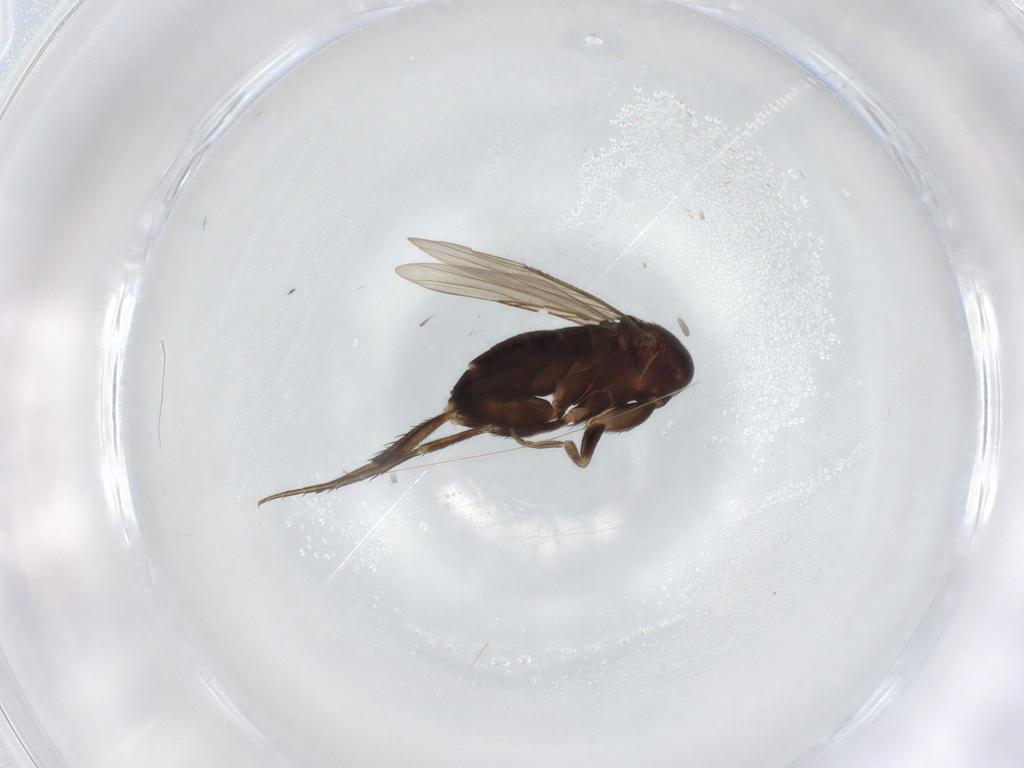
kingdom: Animalia
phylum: Arthropoda
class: Insecta
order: Diptera
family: Phoridae
